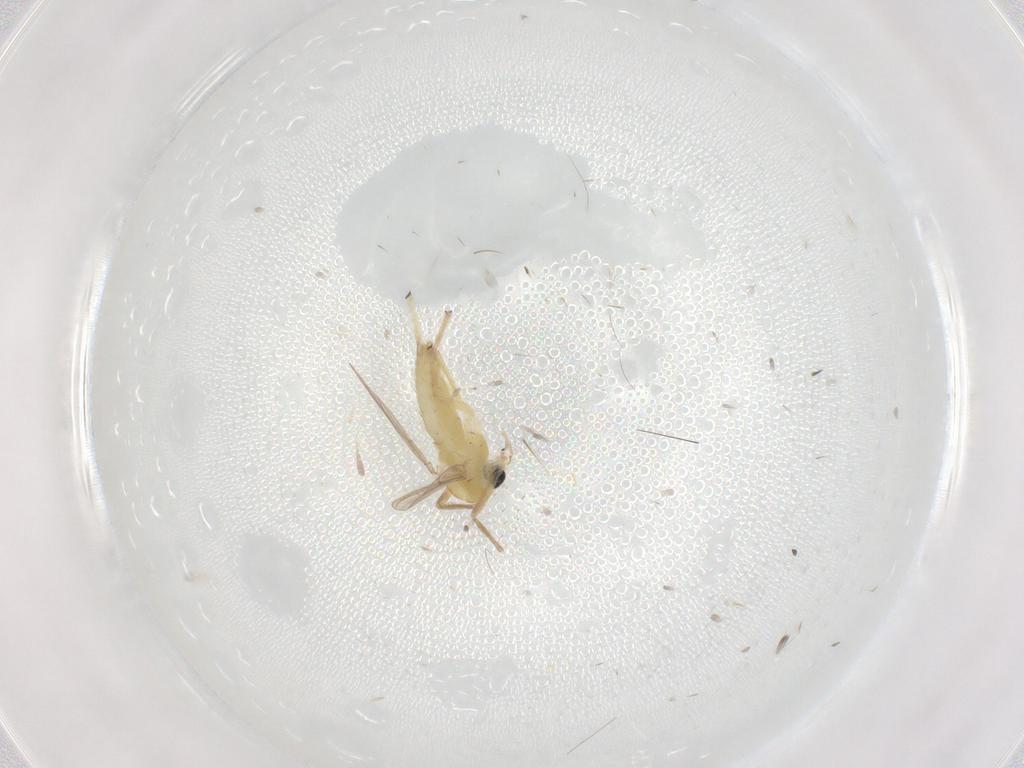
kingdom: Animalia
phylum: Arthropoda
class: Insecta
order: Diptera
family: Chironomidae
